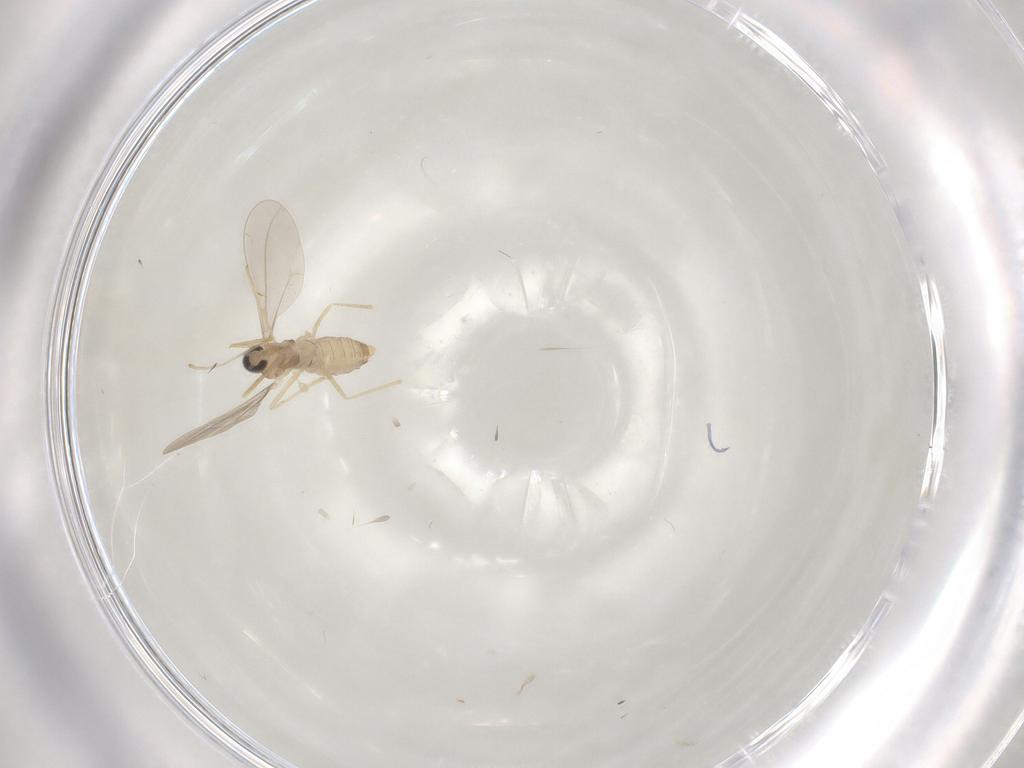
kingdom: Animalia
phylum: Arthropoda
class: Insecta
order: Diptera
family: Cecidomyiidae
